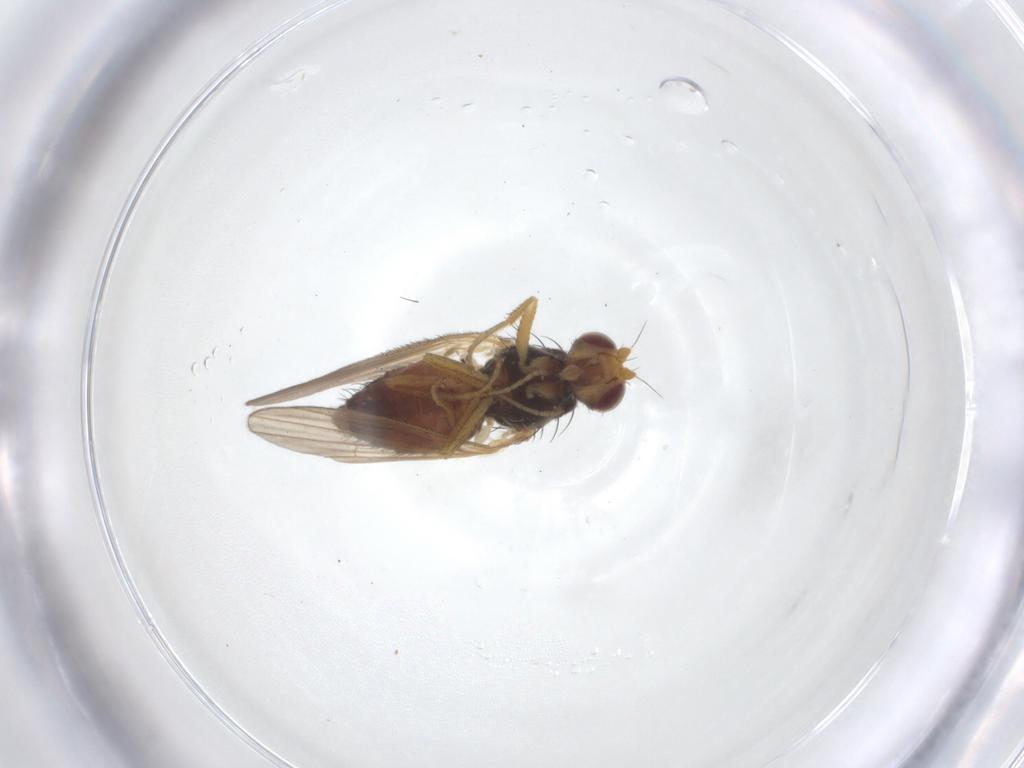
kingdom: Animalia
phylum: Arthropoda
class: Insecta
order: Diptera
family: Heleomyzidae
